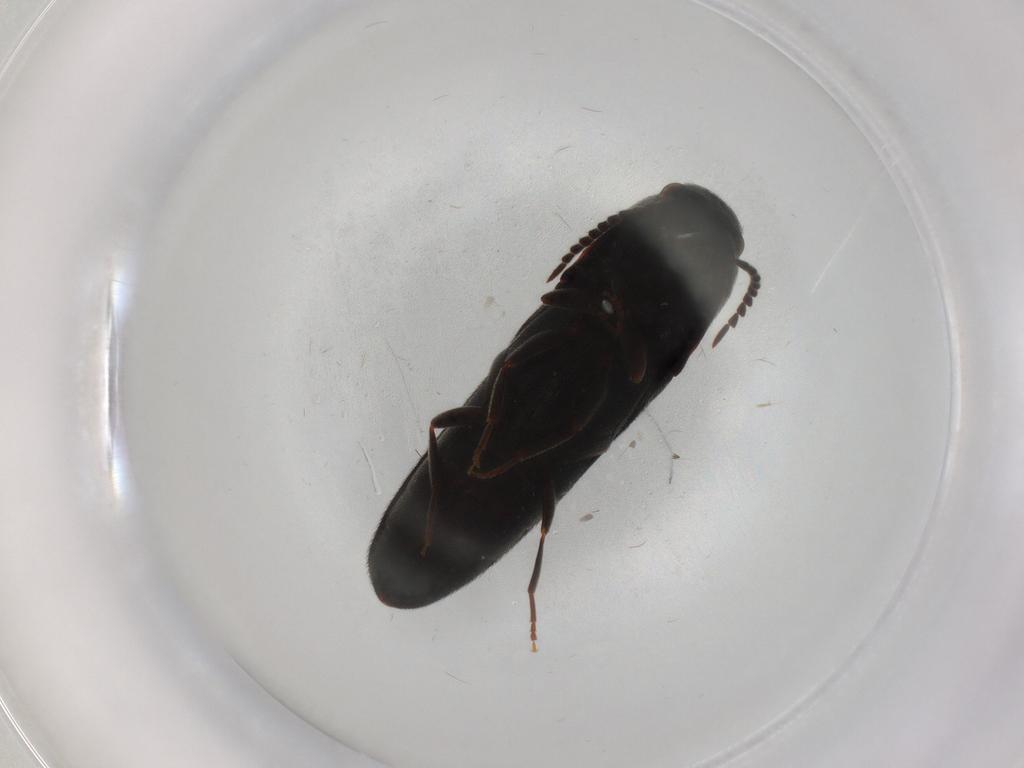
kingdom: Animalia
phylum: Arthropoda
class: Insecta
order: Coleoptera
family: Eucnemidae
